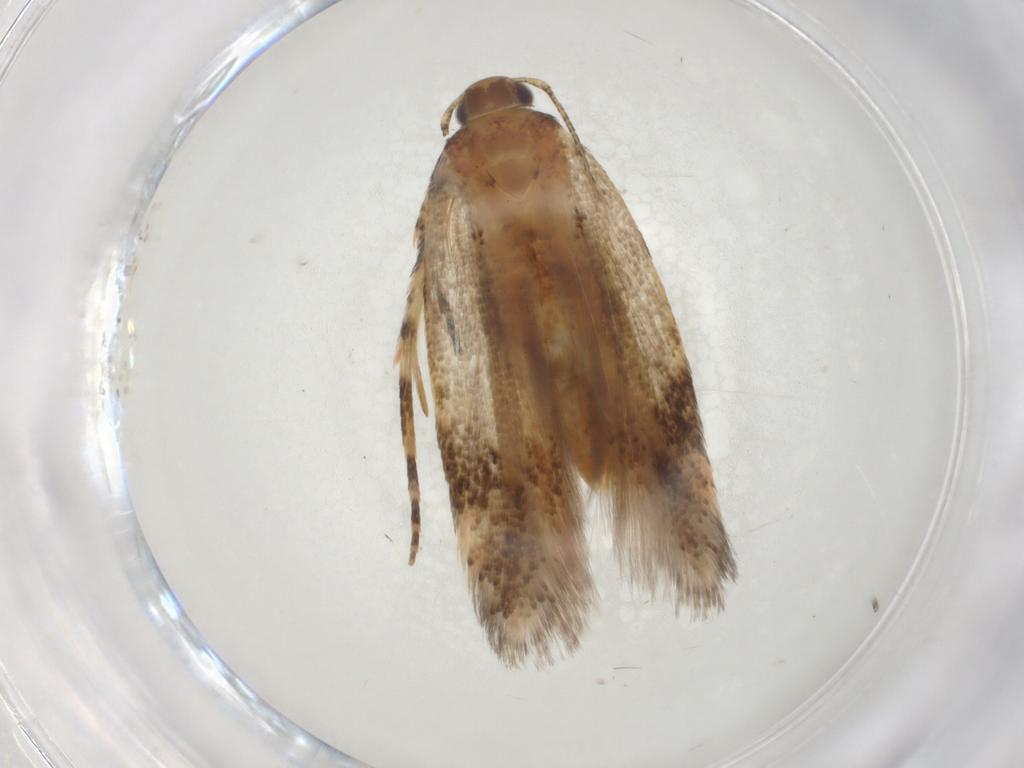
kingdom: Animalia
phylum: Arthropoda
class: Insecta
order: Lepidoptera
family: Gelechiidae
